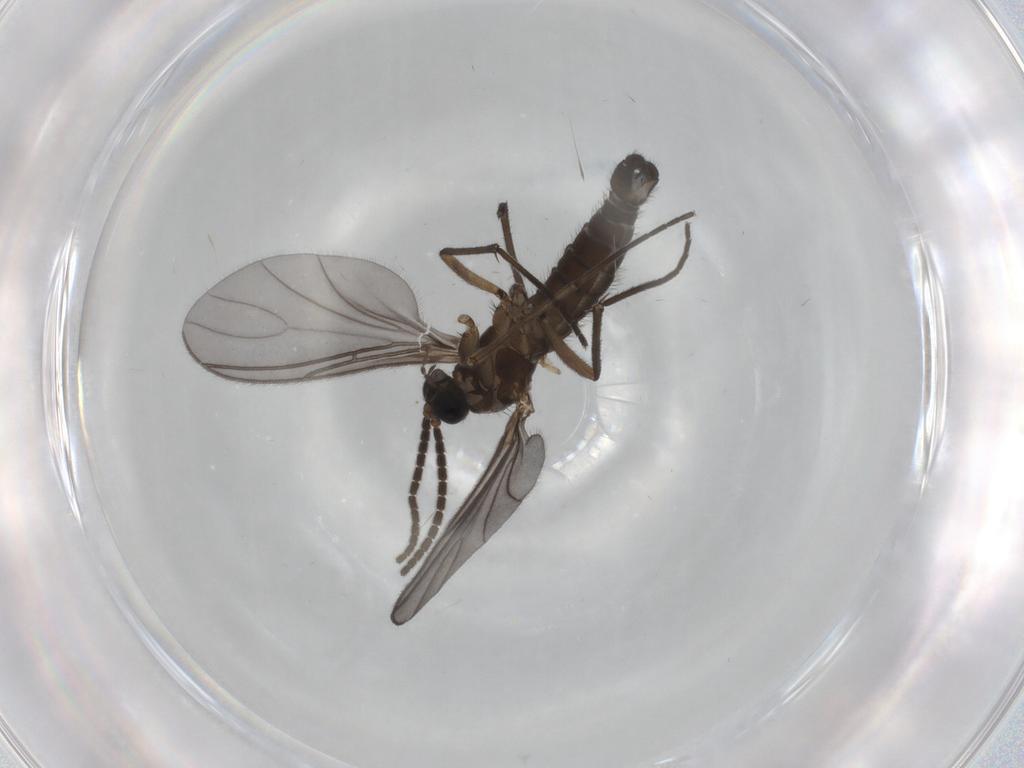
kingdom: Animalia
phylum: Arthropoda
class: Insecta
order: Diptera
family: Sciaridae
